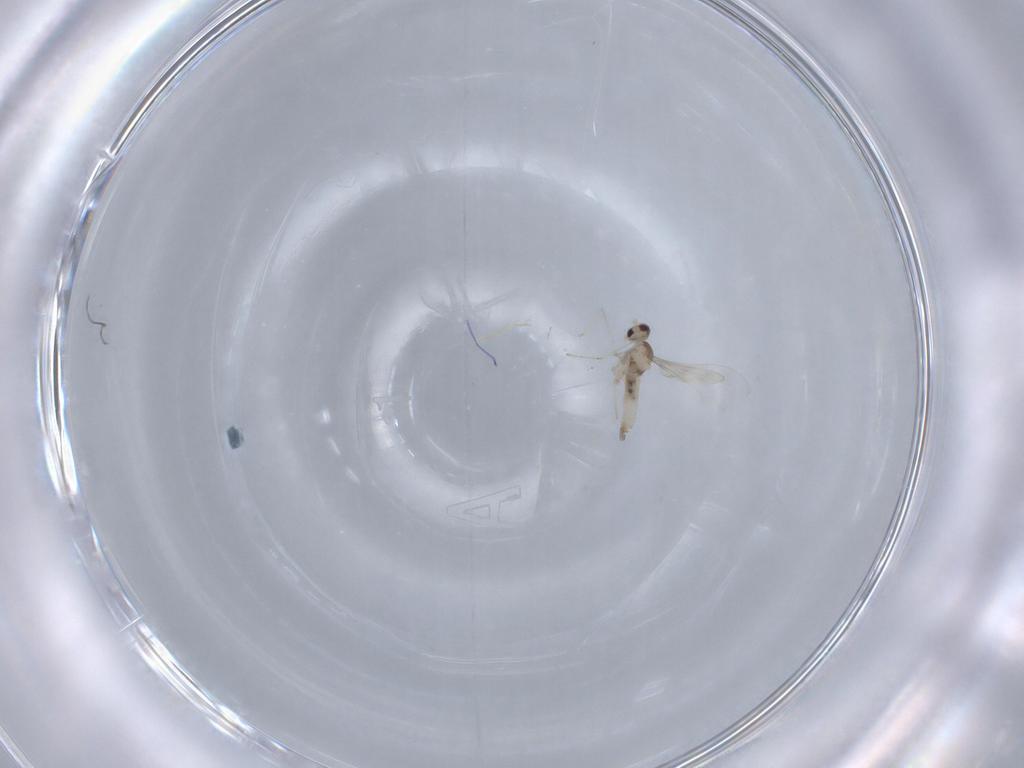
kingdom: Animalia
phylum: Arthropoda
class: Insecta
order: Diptera
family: Cecidomyiidae
